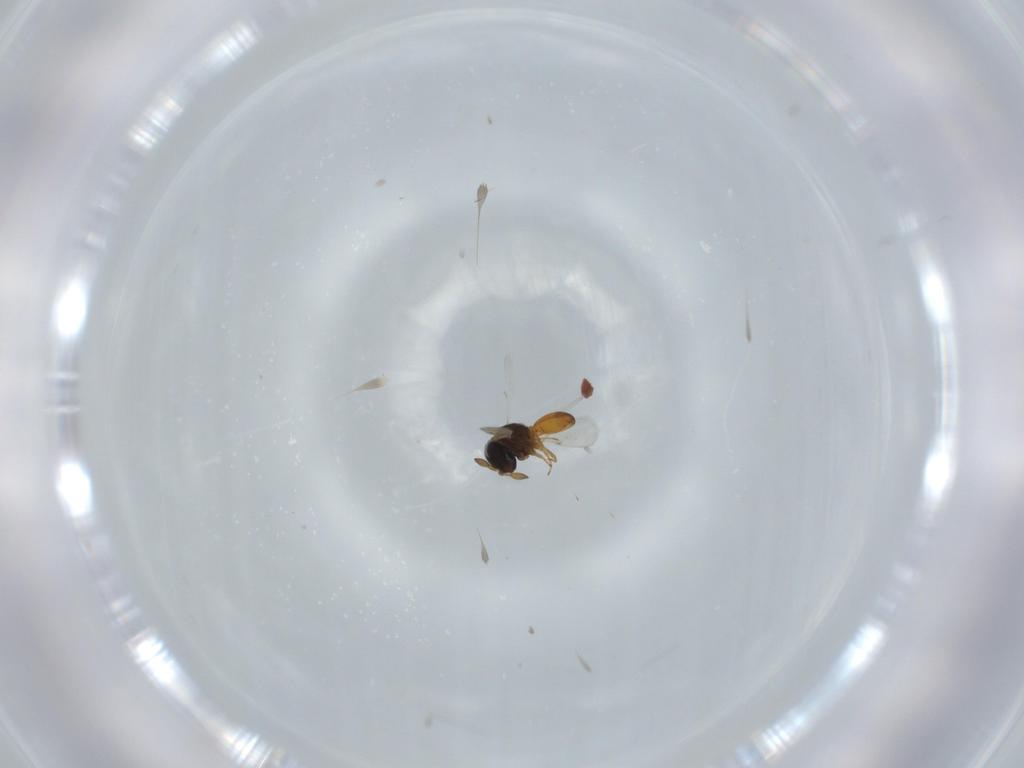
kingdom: Animalia
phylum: Arthropoda
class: Insecta
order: Hymenoptera
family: Scelionidae
